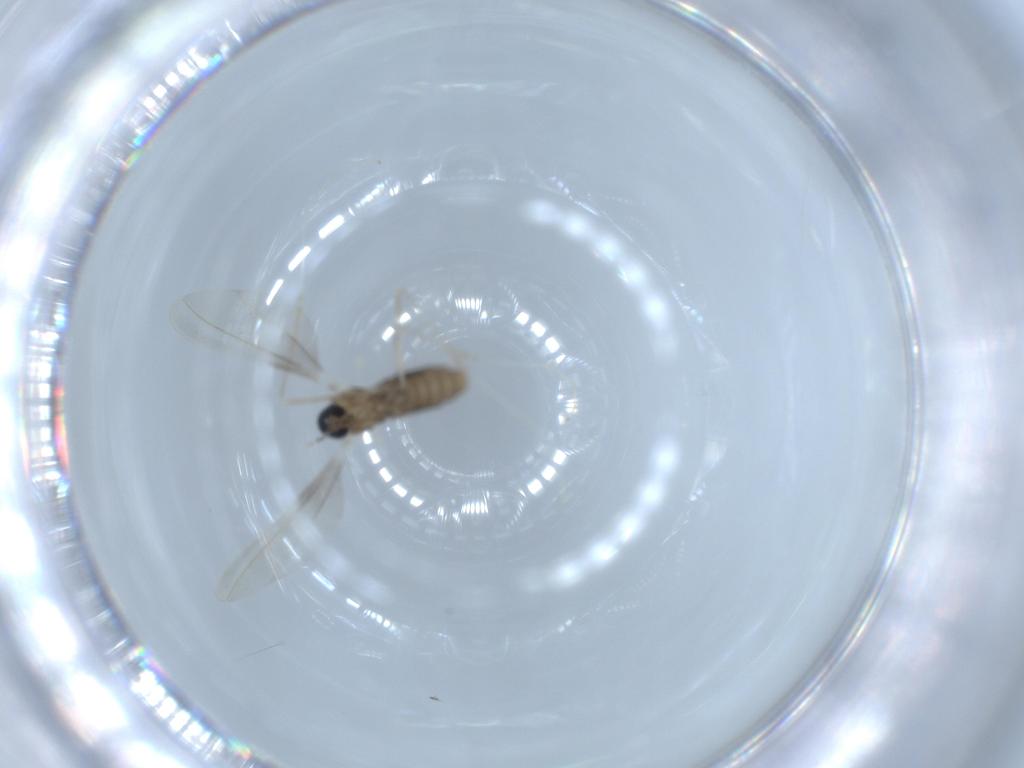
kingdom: Animalia
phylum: Arthropoda
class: Insecta
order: Diptera
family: Cecidomyiidae
